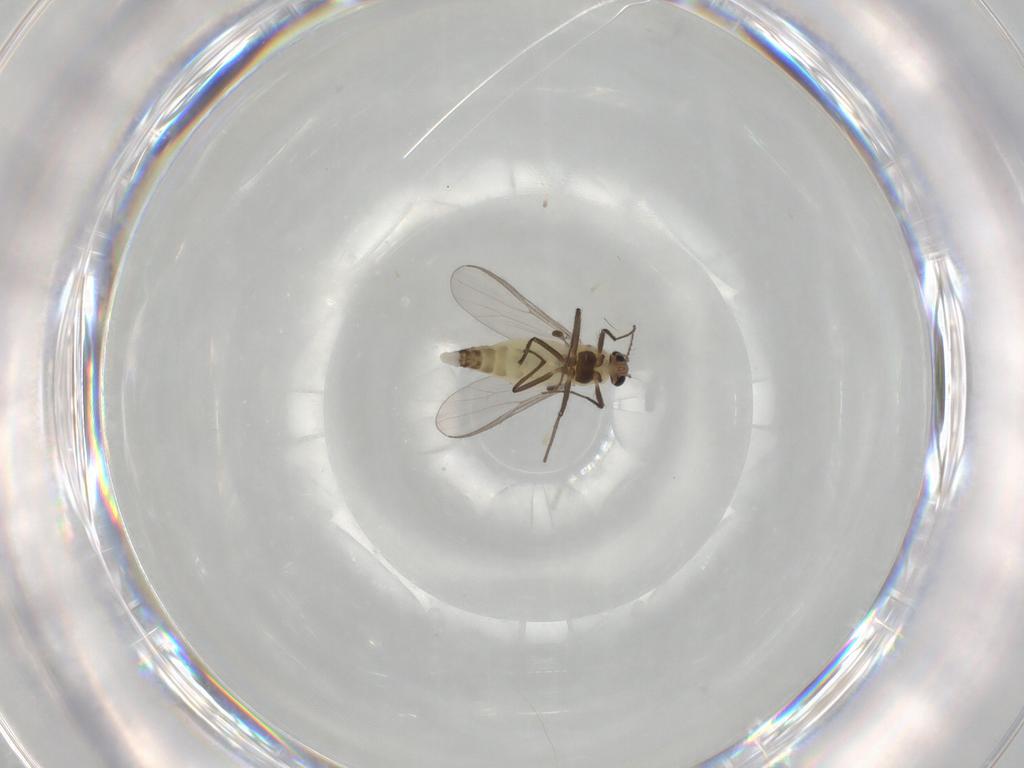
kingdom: Animalia
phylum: Arthropoda
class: Insecta
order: Diptera
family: Chironomidae
